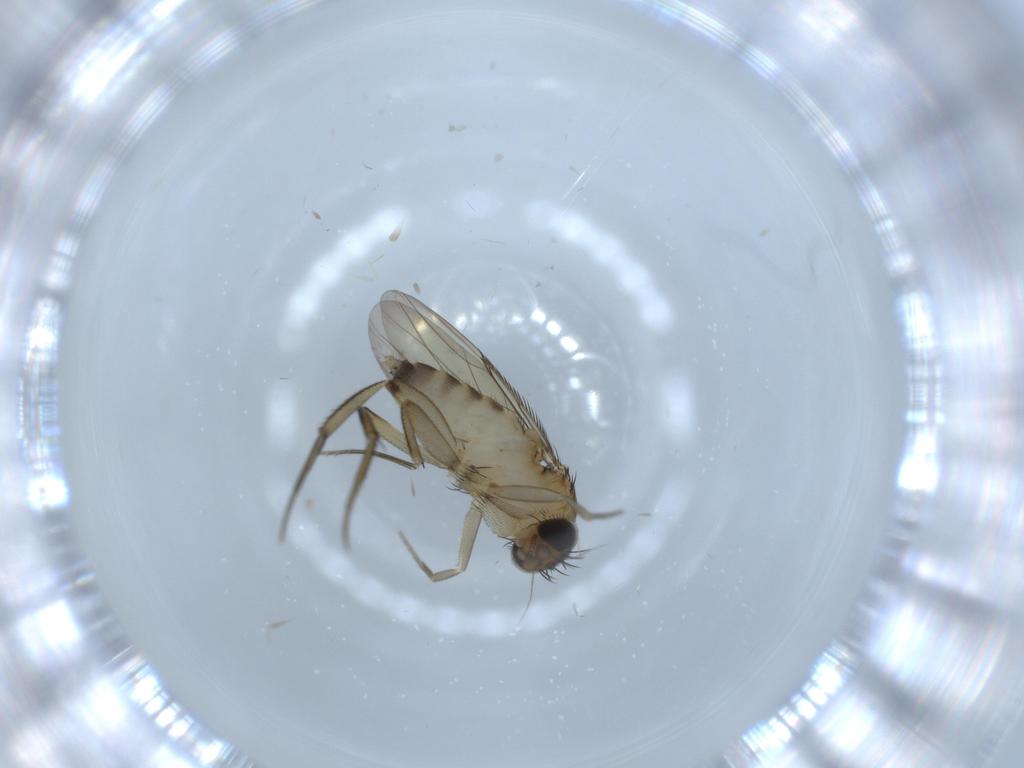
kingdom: Animalia
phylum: Arthropoda
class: Insecta
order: Diptera
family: Phoridae
